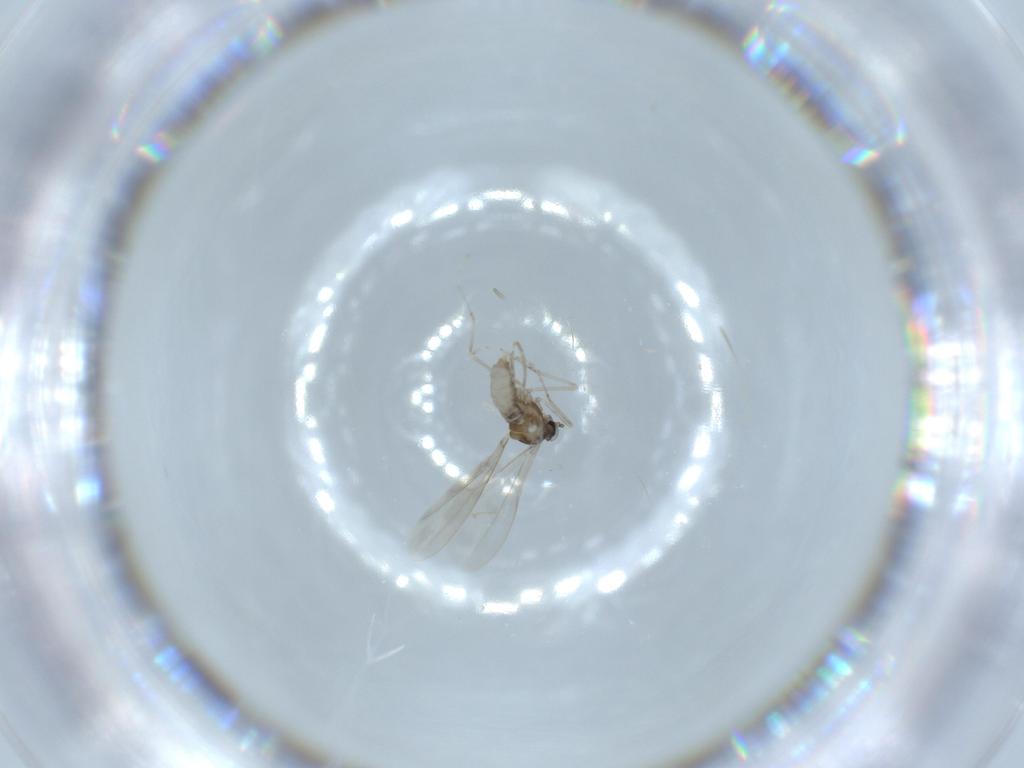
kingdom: Animalia
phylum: Arthropoda
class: Insecta
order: Diptera
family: Cecidomyiidae
